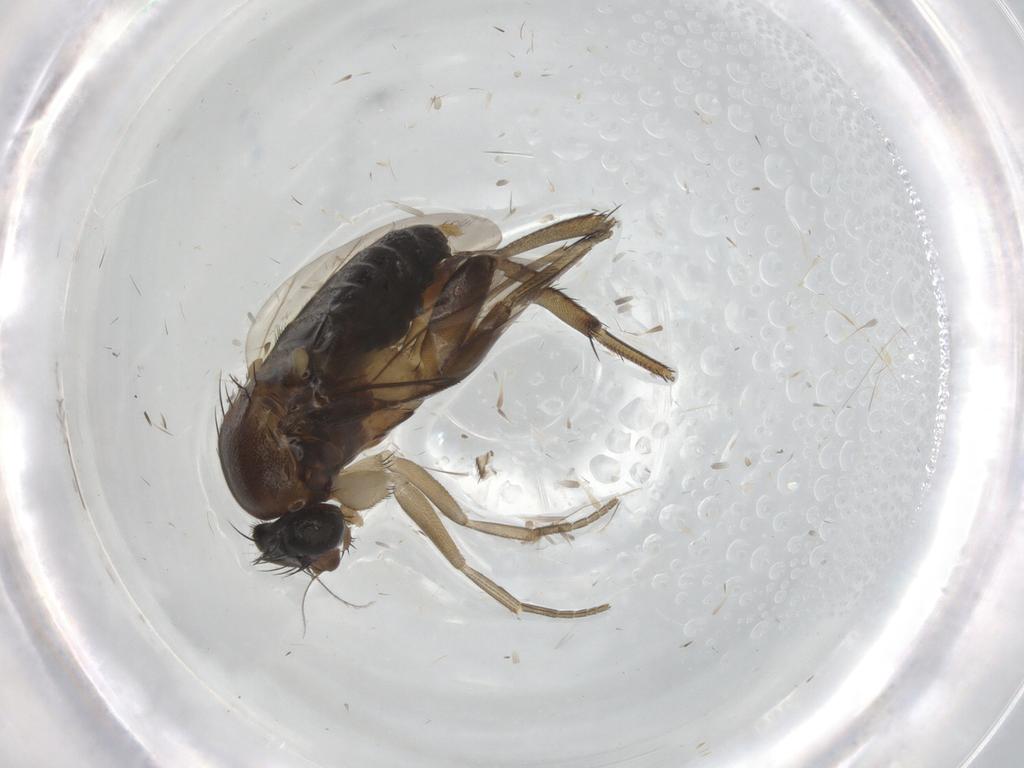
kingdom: Animalia
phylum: Arthropoda
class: Insecta
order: Diptera
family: Phoridae
